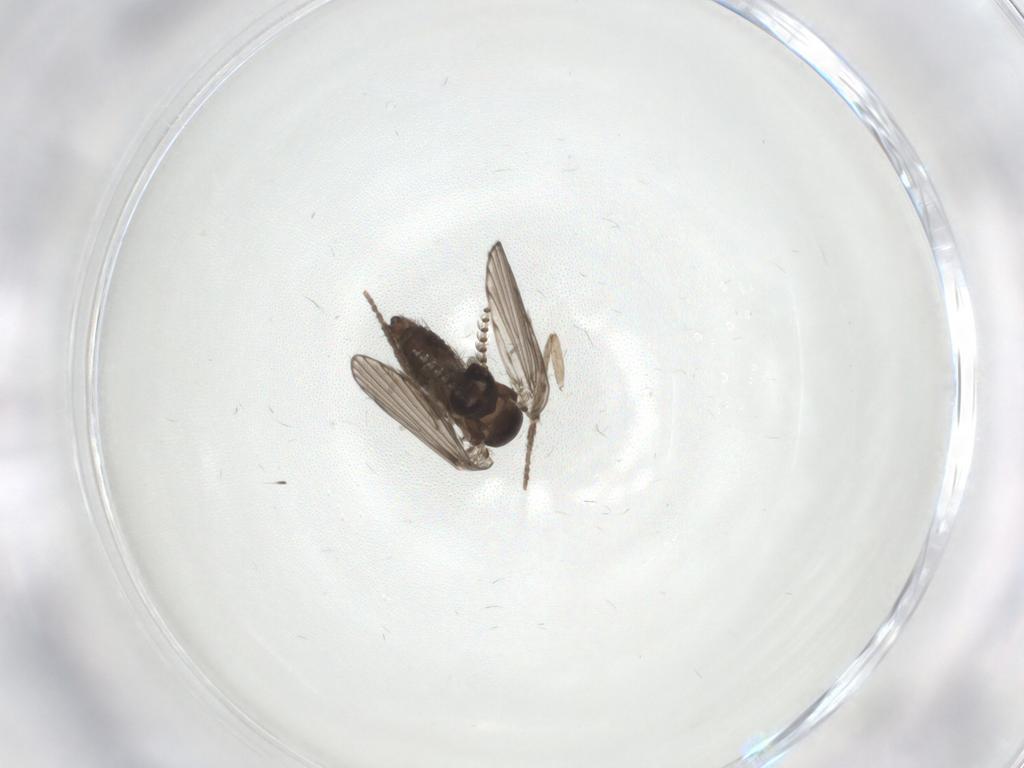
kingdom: Animalia
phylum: Arthropoda
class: Insecta
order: Diptera
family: Psychodidae
